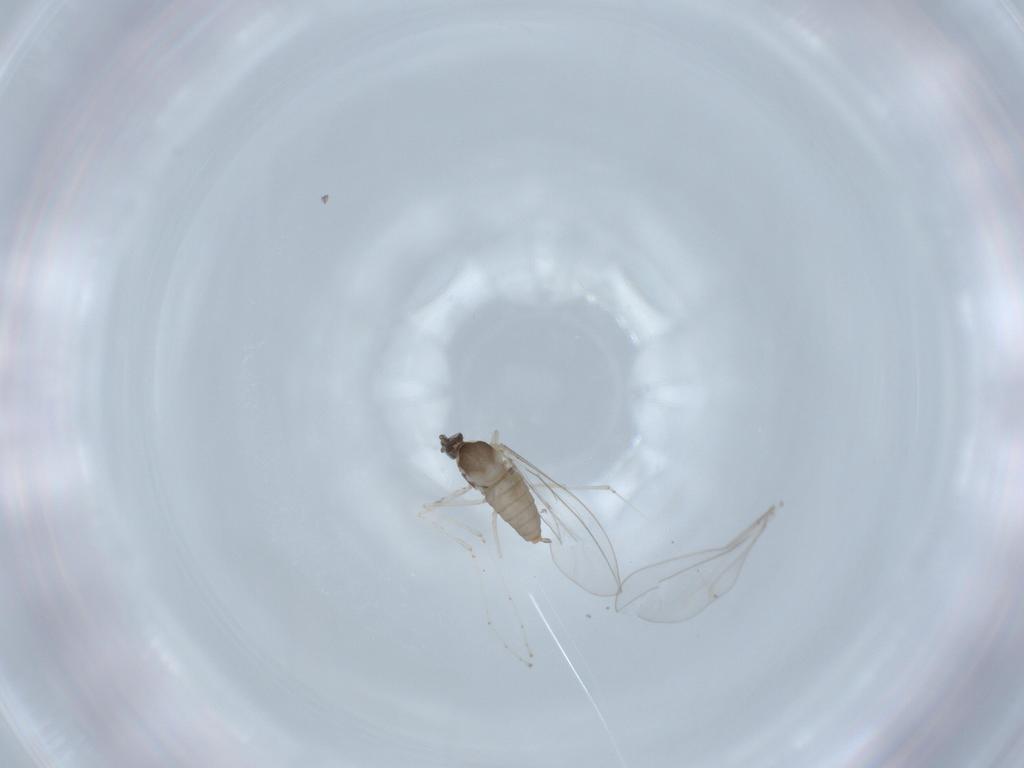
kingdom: Animalia
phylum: Arthropoda
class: Insecta
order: Diptera
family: Cecidomyiidae
